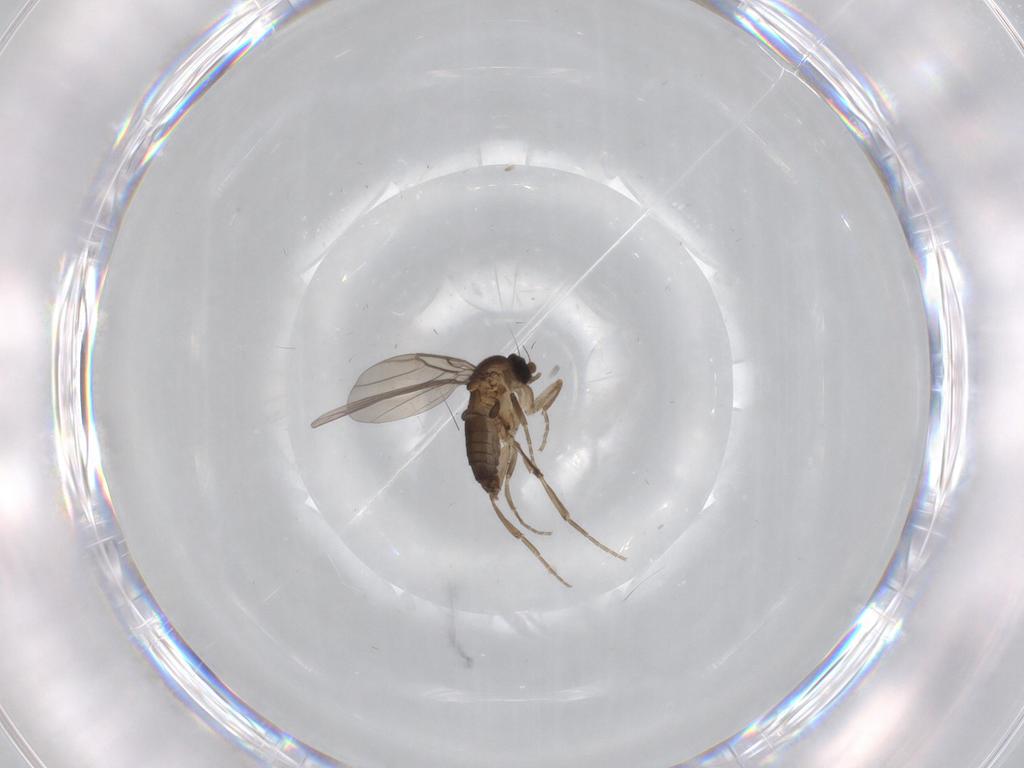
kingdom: Animalia
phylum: Arthropoda
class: Insecta
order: Diptera
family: Phoridae
